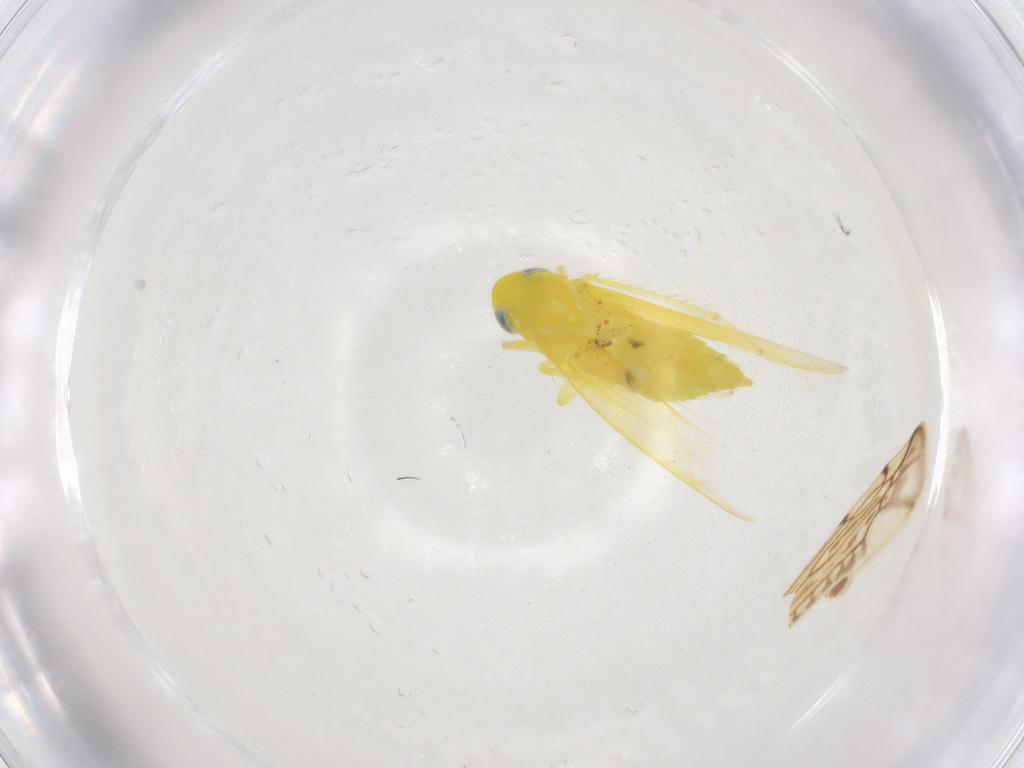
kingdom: Animalia
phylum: Arthropoda
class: Insecta
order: Hemiptera
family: Cicadellidae
